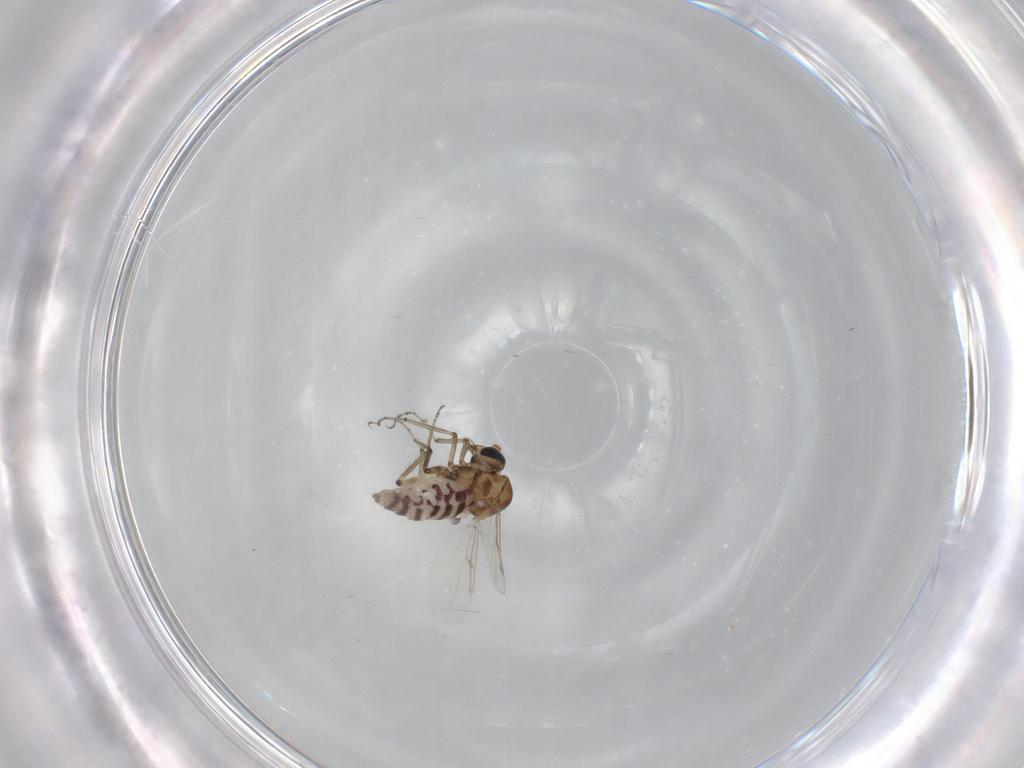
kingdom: Animalia
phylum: Arthropoda
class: Insecta
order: Diptera
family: Ceratopogonidae
